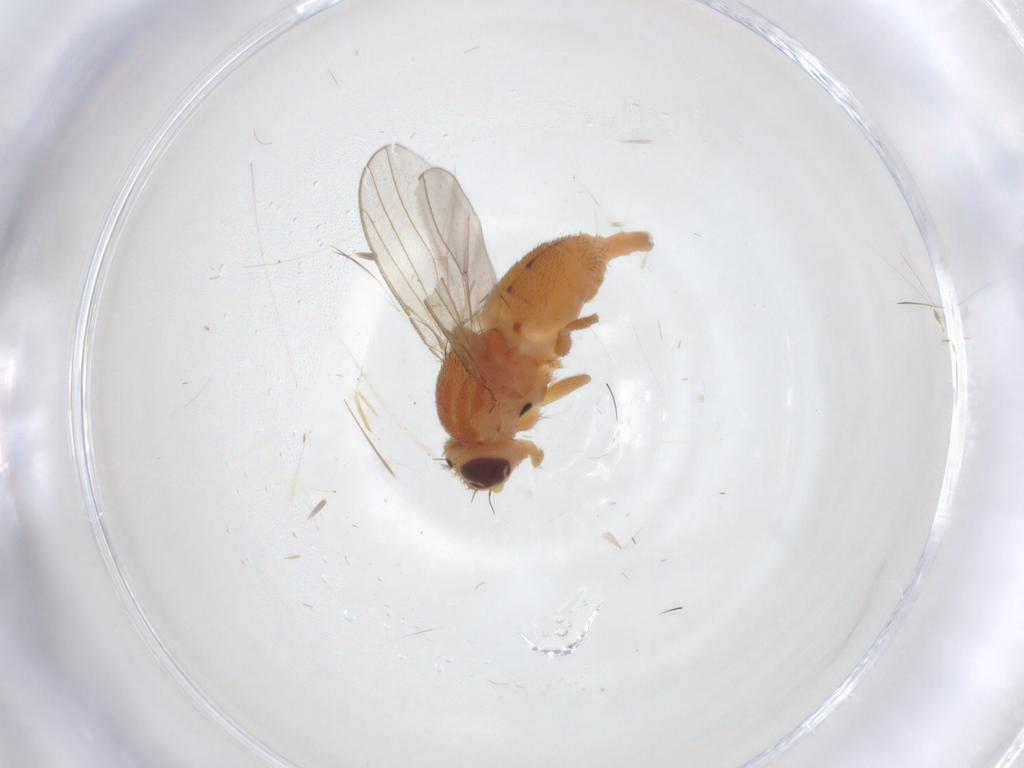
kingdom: Animalia
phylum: Arthropoda
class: Insecta
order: Diptera
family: Chloropidae
